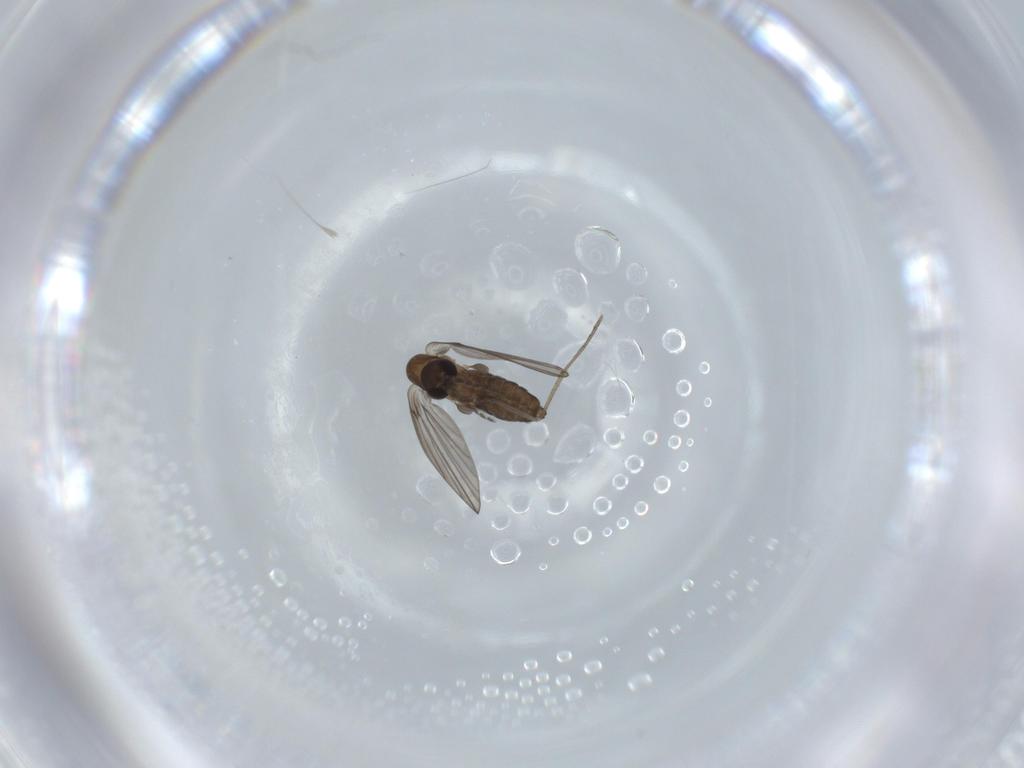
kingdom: Animalia
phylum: Arthropoda
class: Insecta
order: Diptera
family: Psychodidae
